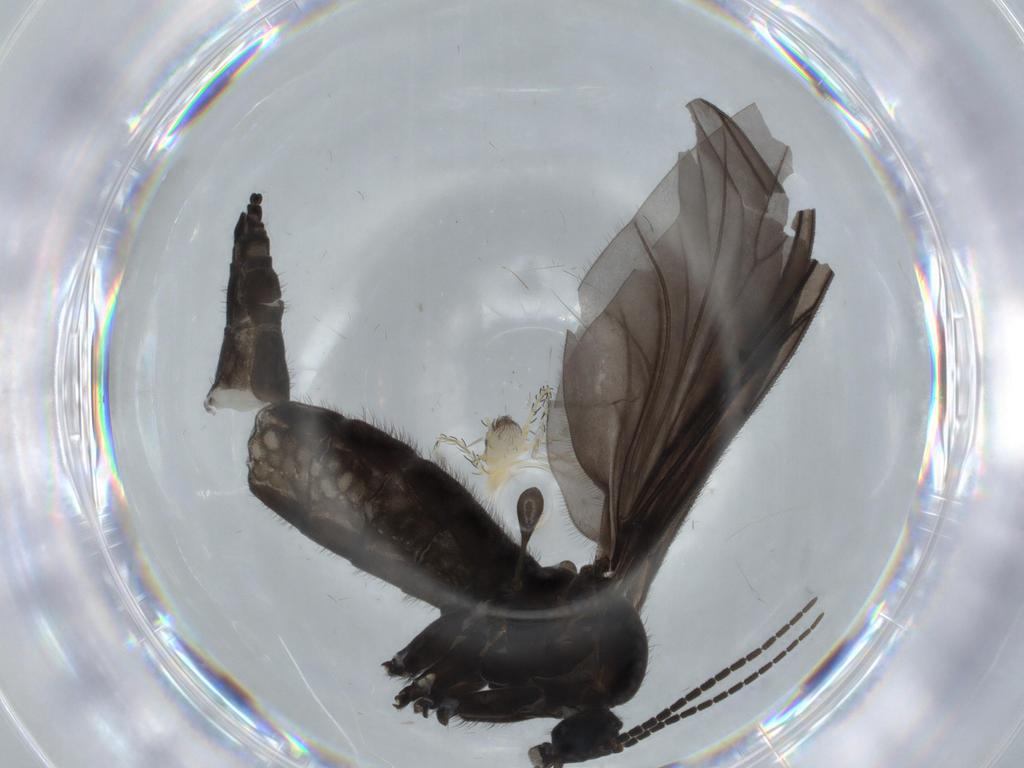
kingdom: Animalia
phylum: Arthropoda
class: Insecta
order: Diptera
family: Sciaridae
